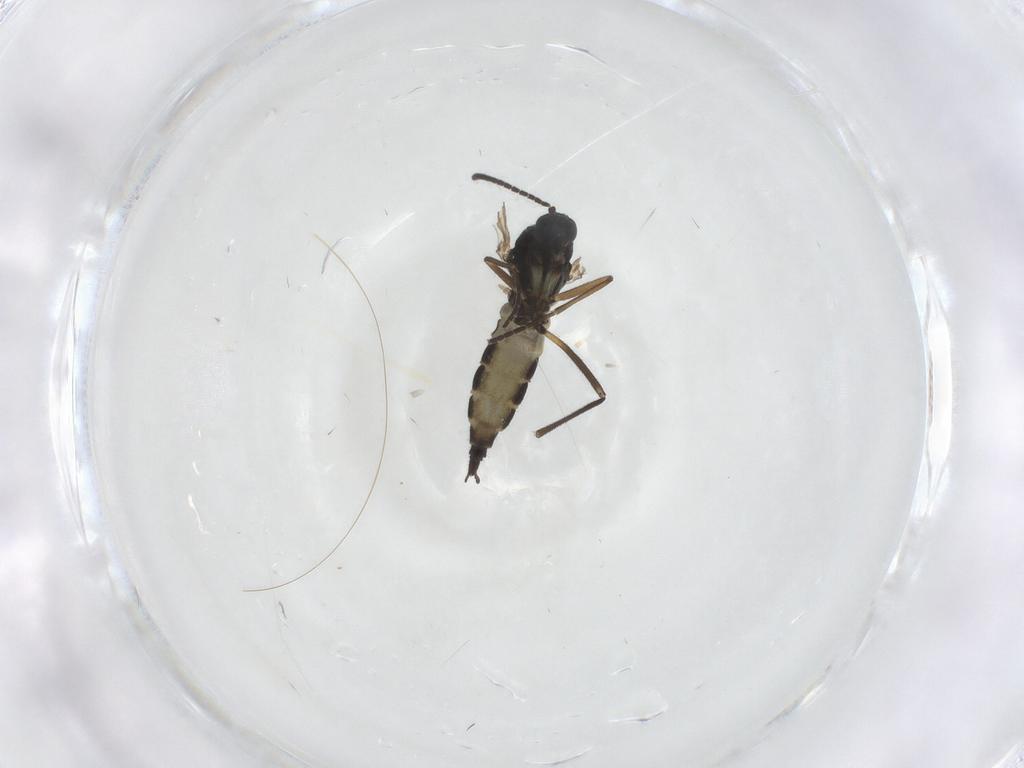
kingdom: Animalia
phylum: Arthropoda
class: Insecta
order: Diptera
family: Sciaridae
